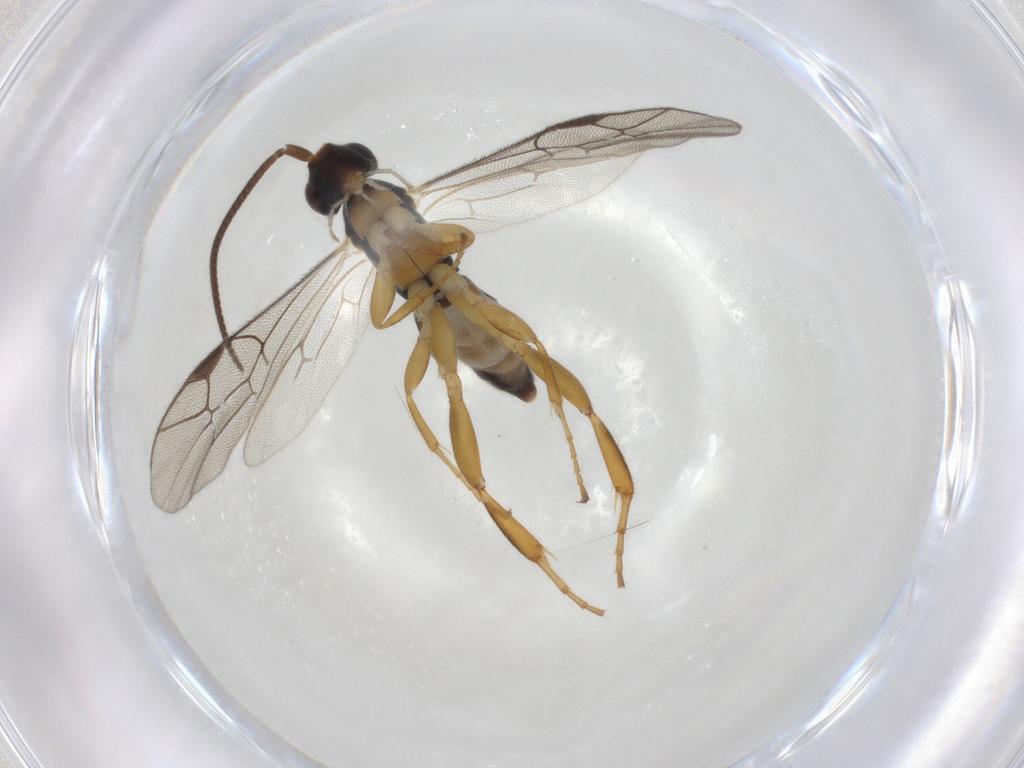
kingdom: Animalia
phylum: Arthropoda
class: Insecta
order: Hymenoptera
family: Ichneumonidae
